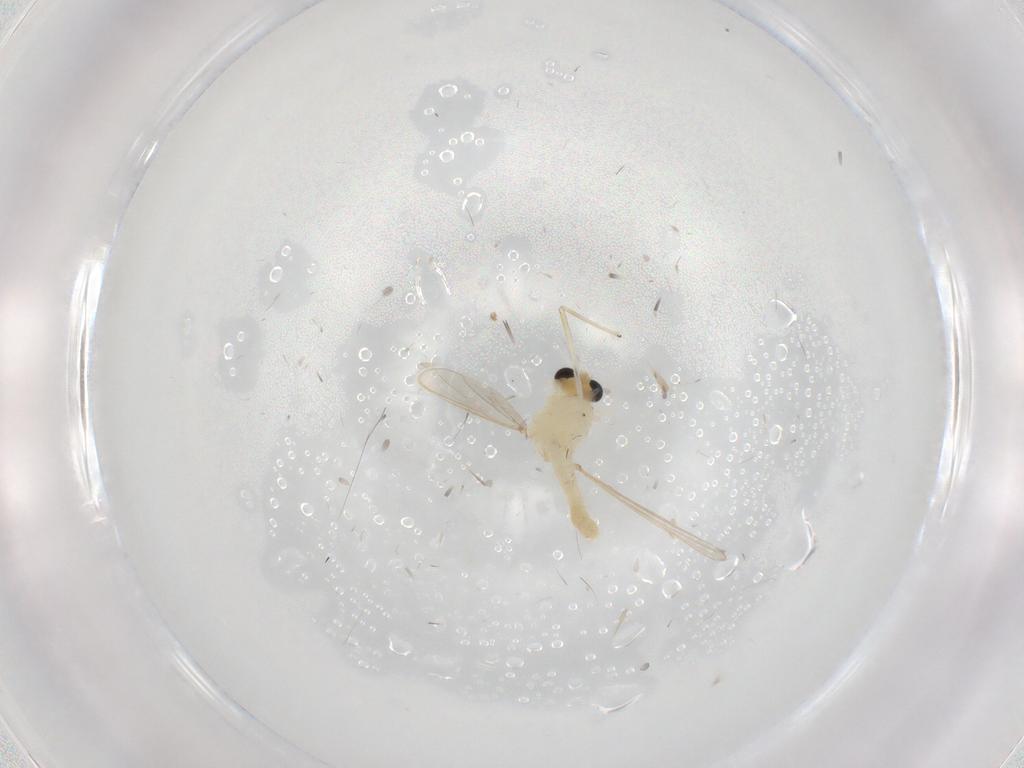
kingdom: Animalia
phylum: Arthropoda
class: Insecta
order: Diptera
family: Chironomidae
